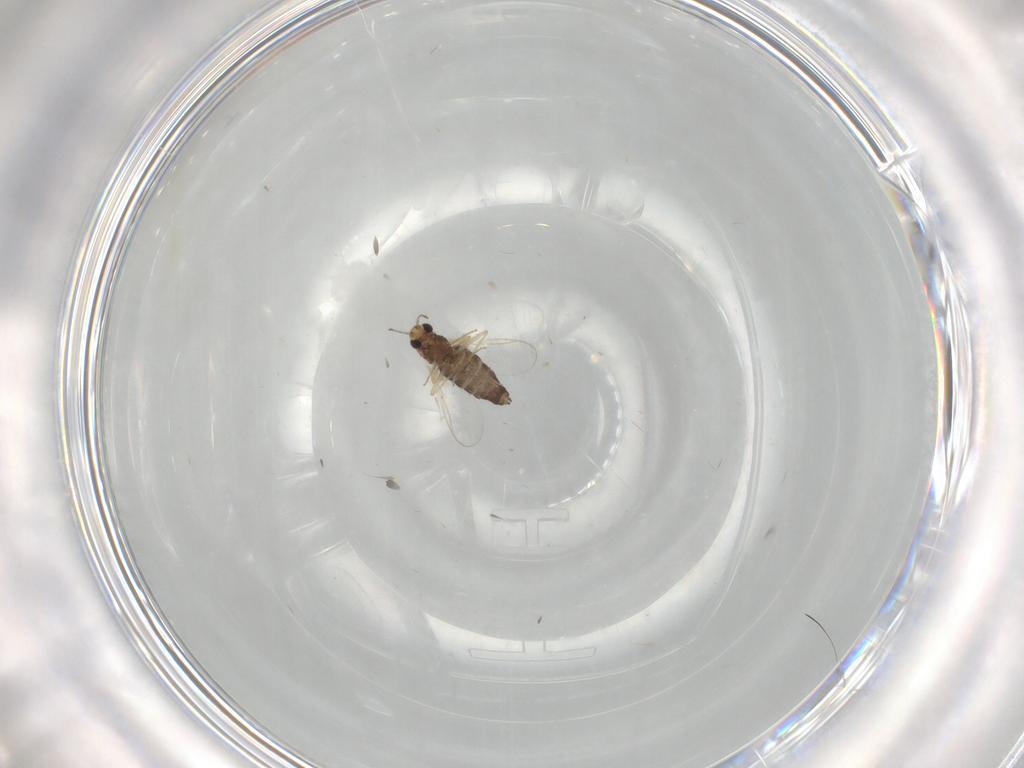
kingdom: Animalia
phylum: Arthropoda
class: Insecta
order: Diptera
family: Chironomidae
